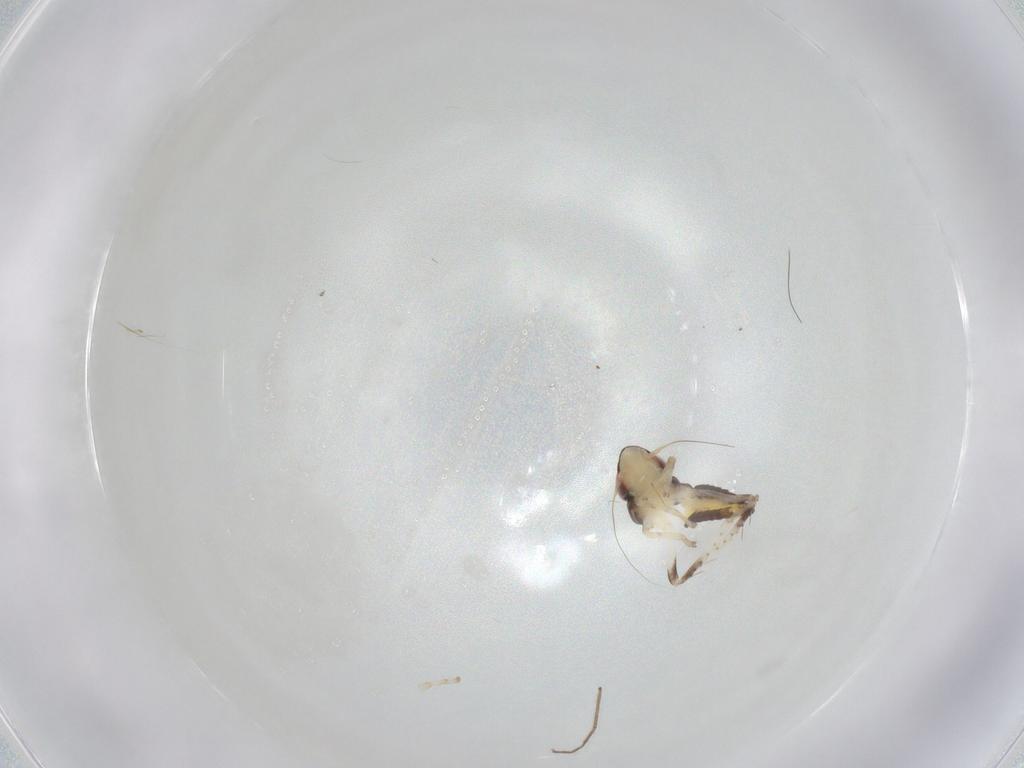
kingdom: Animalia
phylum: Arthropoda
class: Insecta
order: Hemiptera
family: Cicadellidae
